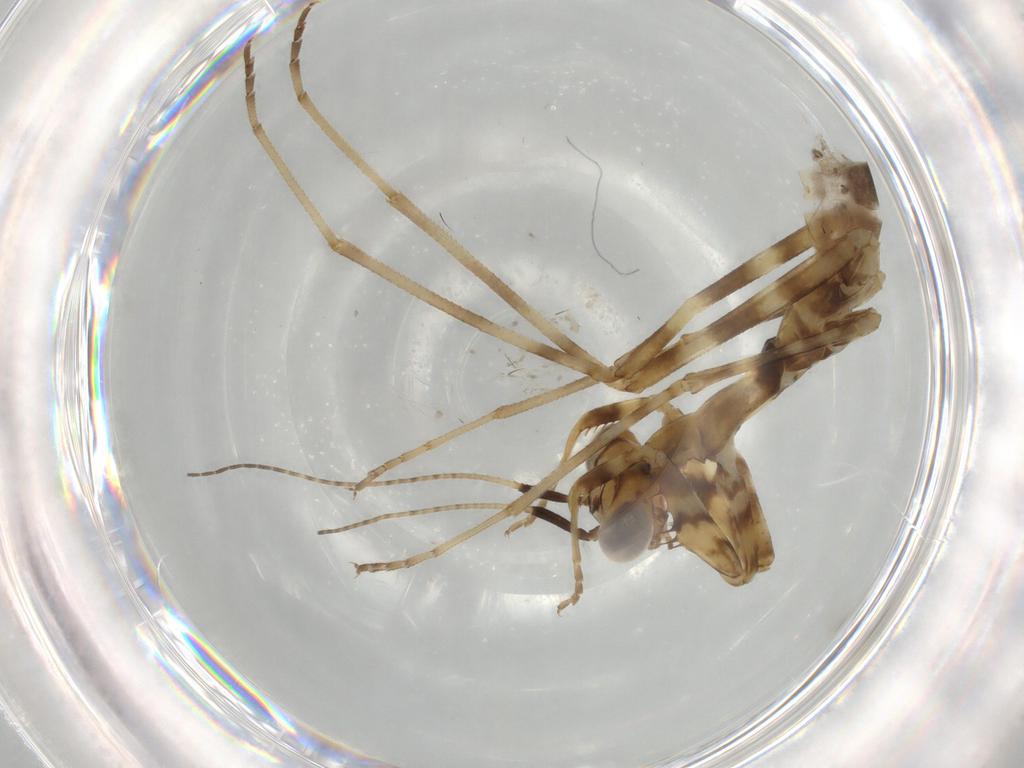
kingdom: Animalia
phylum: Arthropoda
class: Insecta
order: Mantodea
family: Miomantidae
